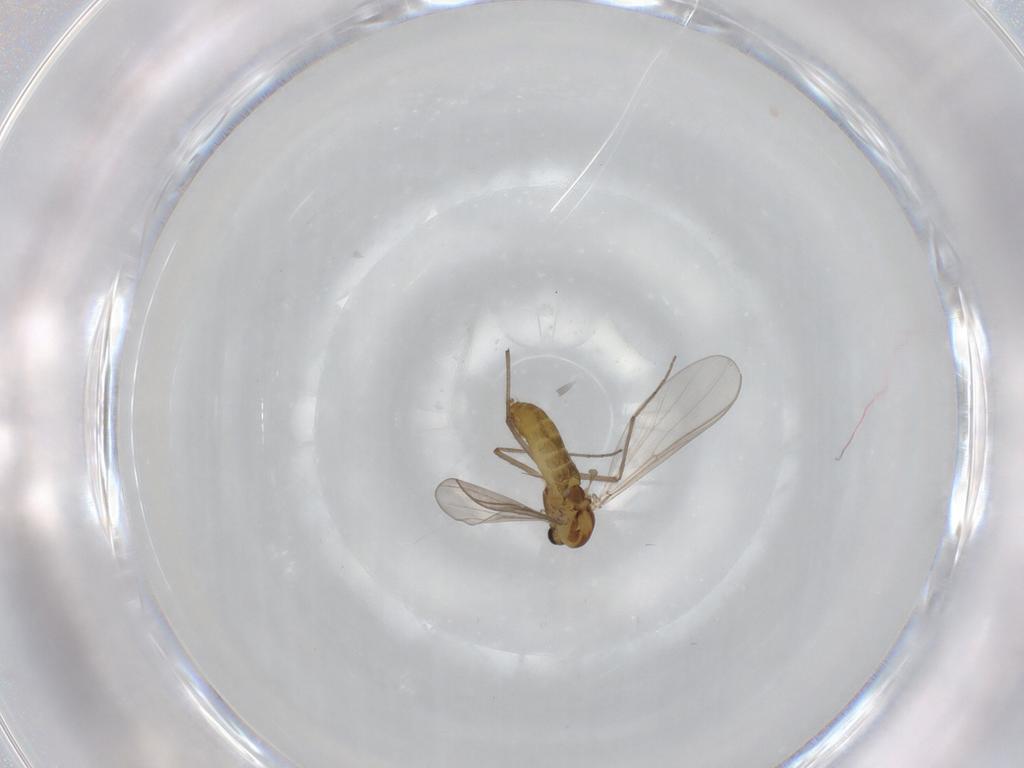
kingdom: Animalia
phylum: Arthropoda
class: Insecta
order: Diptera
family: Chironomidae
